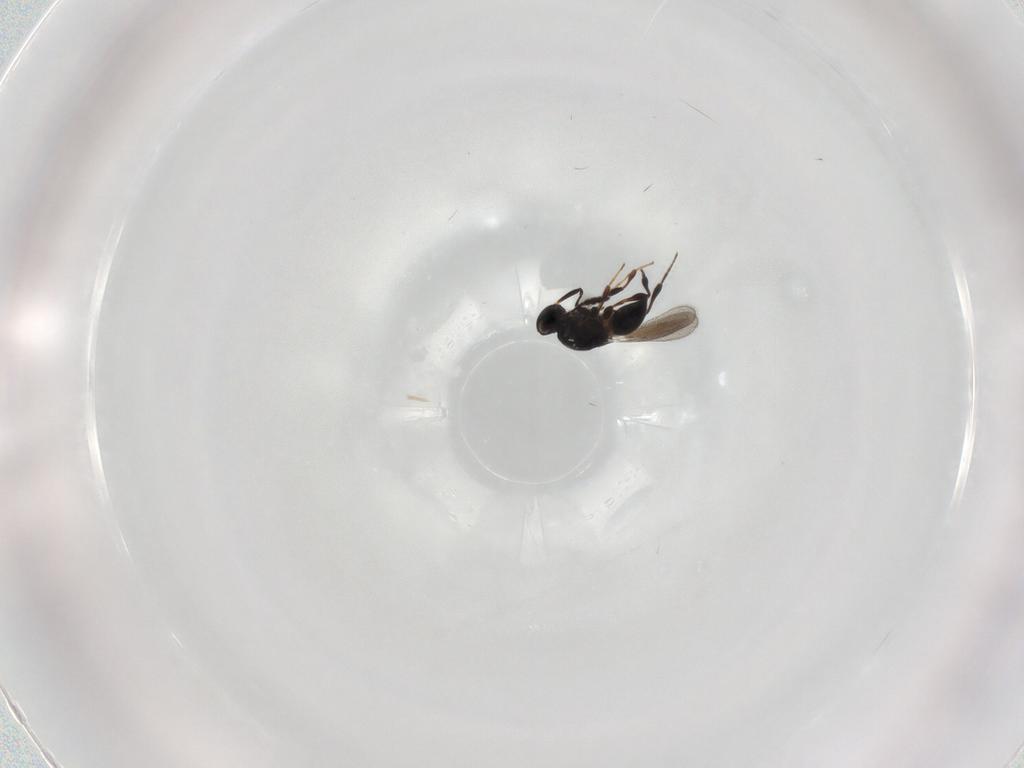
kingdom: Animalia
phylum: Arthropoda
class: Insecta
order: Hymenoptera
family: Platygastridae
